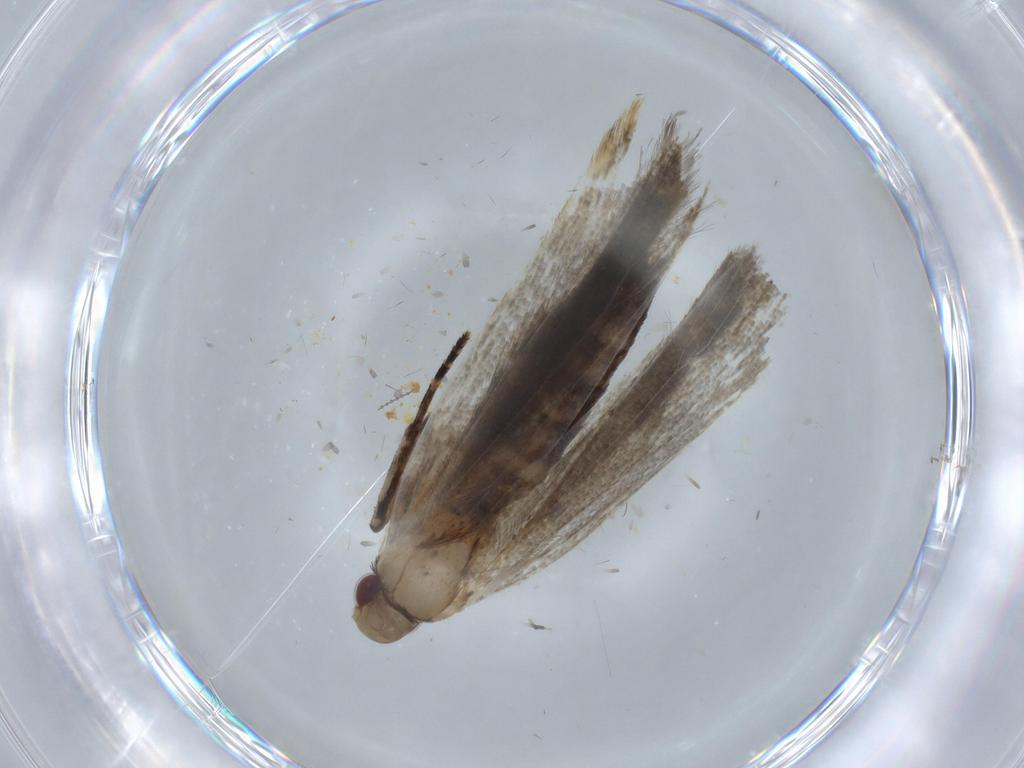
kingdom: Animalia
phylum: Arthropoda
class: Insecta
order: Lepidoptera
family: Gelechiidae
